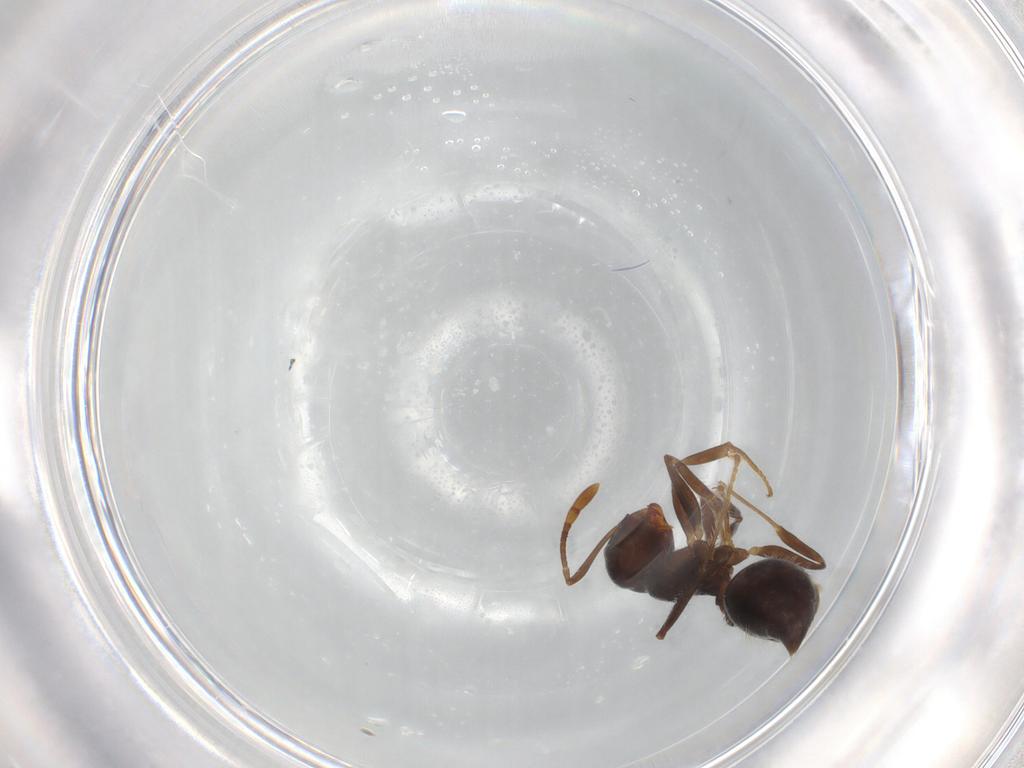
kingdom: Animalia
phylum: Arthropoda
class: Insecta
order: Hymenoptera
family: Formicidae
